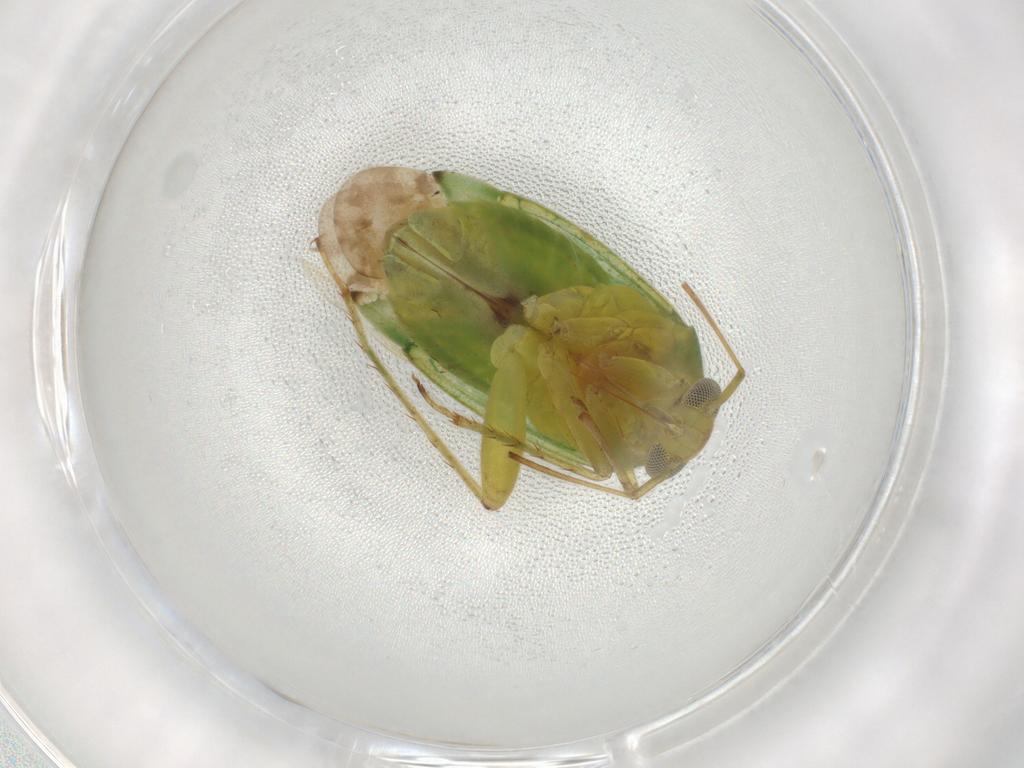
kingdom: Animalia
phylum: Arthropoda
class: Insecta
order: Hemiptera
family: Miridae
